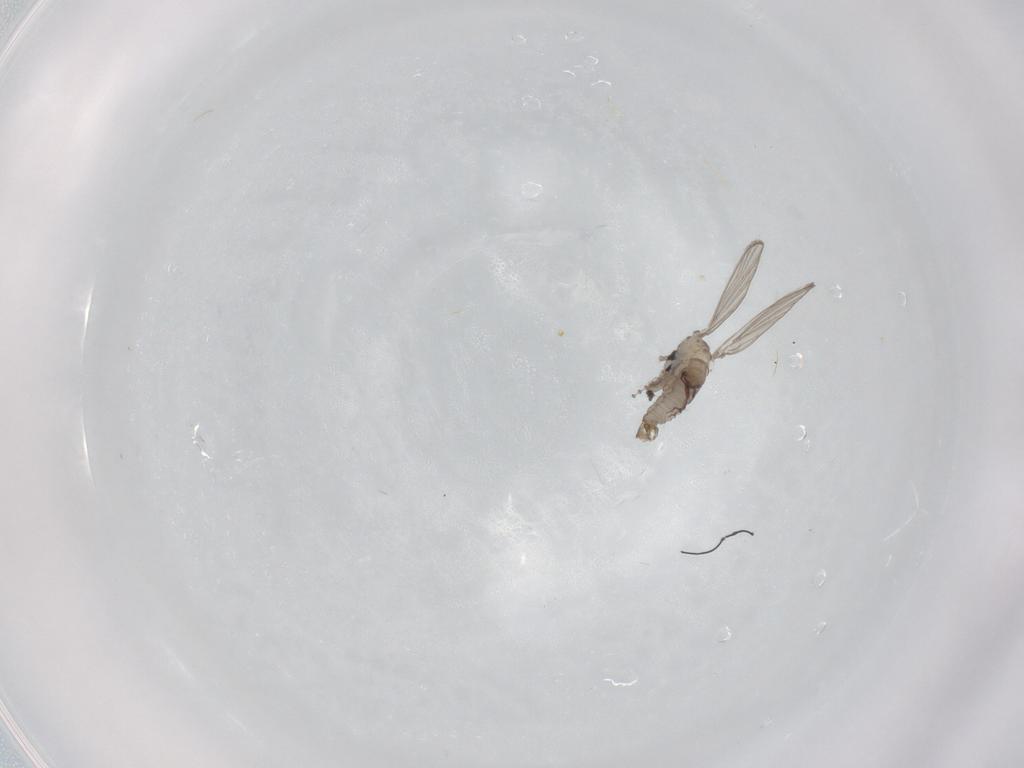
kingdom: Animalia
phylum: Arthropoda
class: Insecta
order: Diptera
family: Psychodidae
